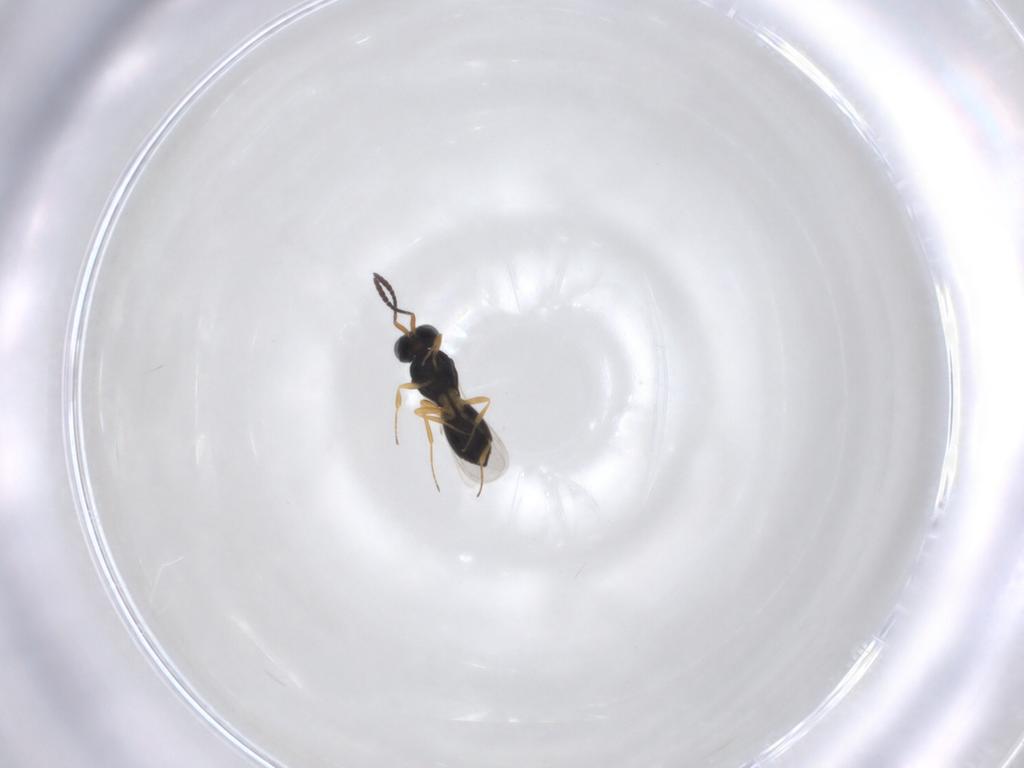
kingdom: Animalia
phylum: Arthropoda
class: Insecta
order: Hymenoptera
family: Scelionidae
